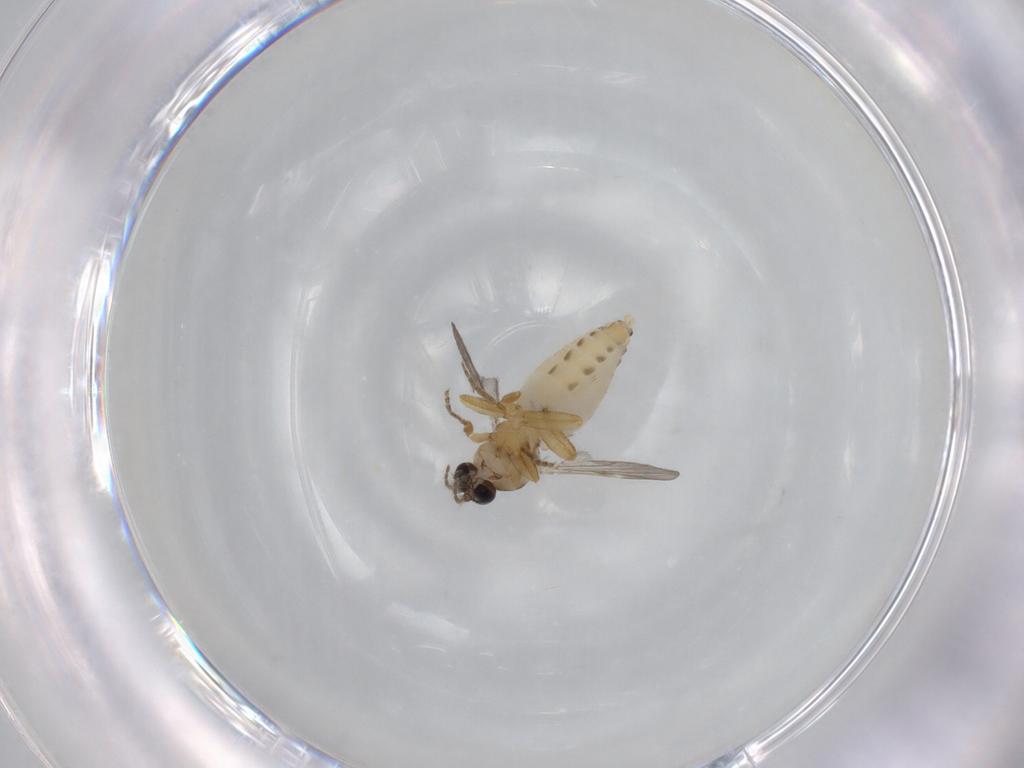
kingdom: Animalia
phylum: Arthropoda
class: Insecta
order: Diptera
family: Ceratopogonidae
